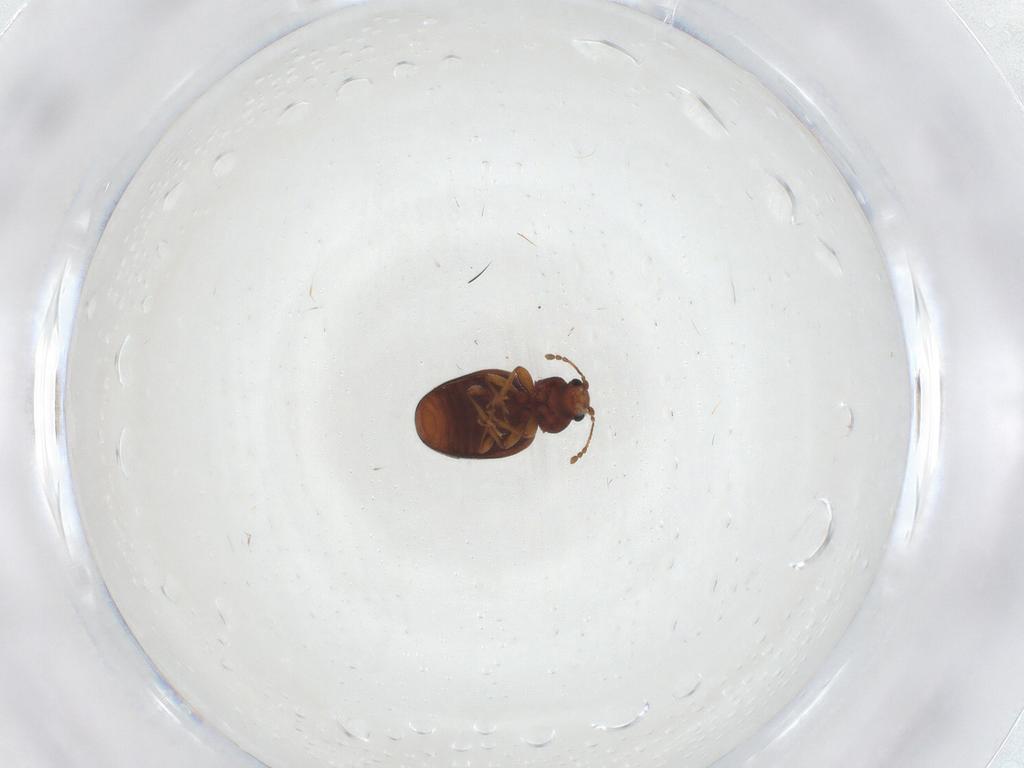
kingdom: Animalia
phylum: Arthropoda
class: Insecta
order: Coleoptera
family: Latridiidae
